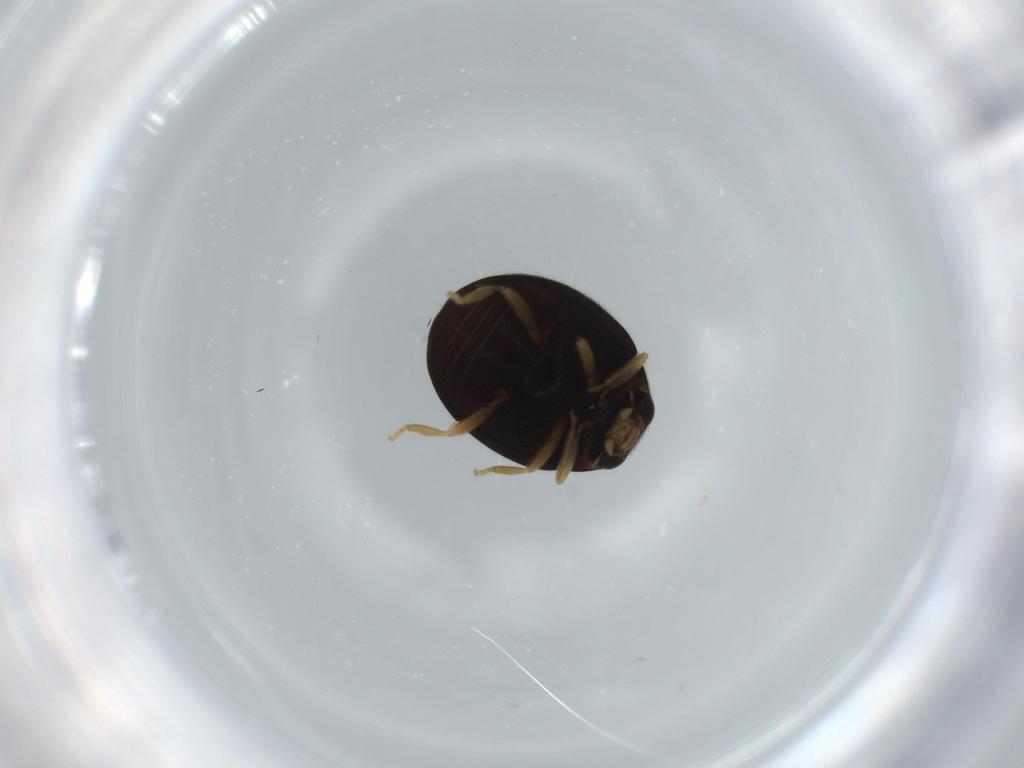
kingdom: Animalia
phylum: Arthropoda
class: Insecta
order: Coleoptera
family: Coccinellidae
